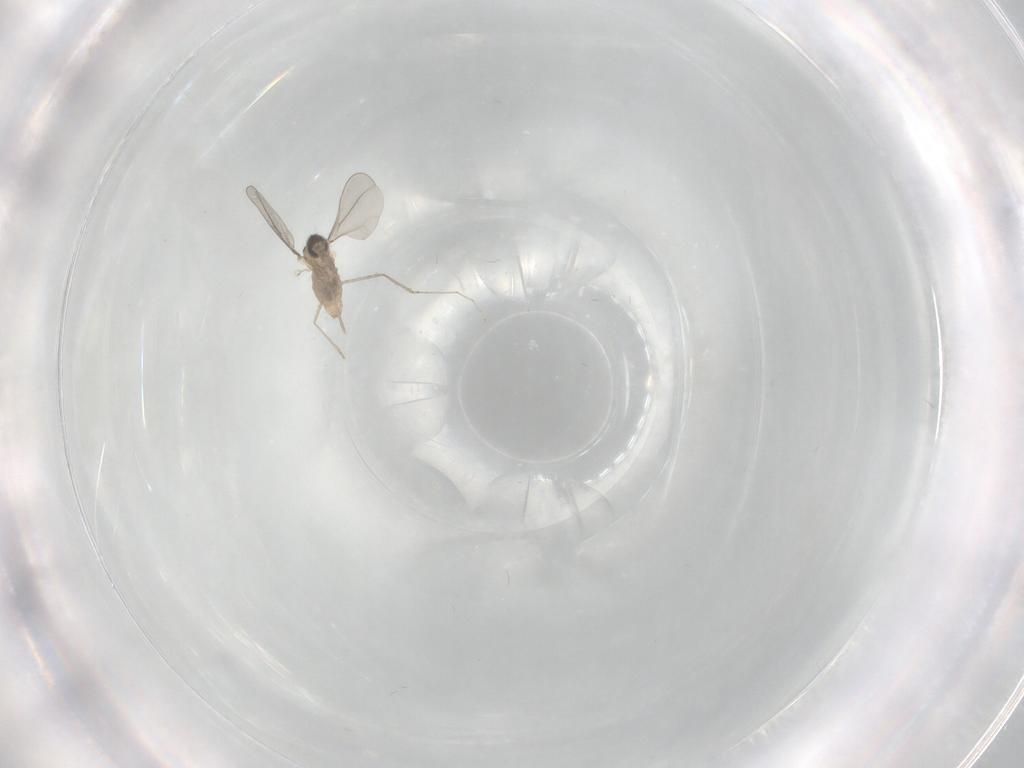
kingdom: Animalia
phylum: Arthropoda
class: Insecta
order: Diptera
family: Cecidomyiidae
